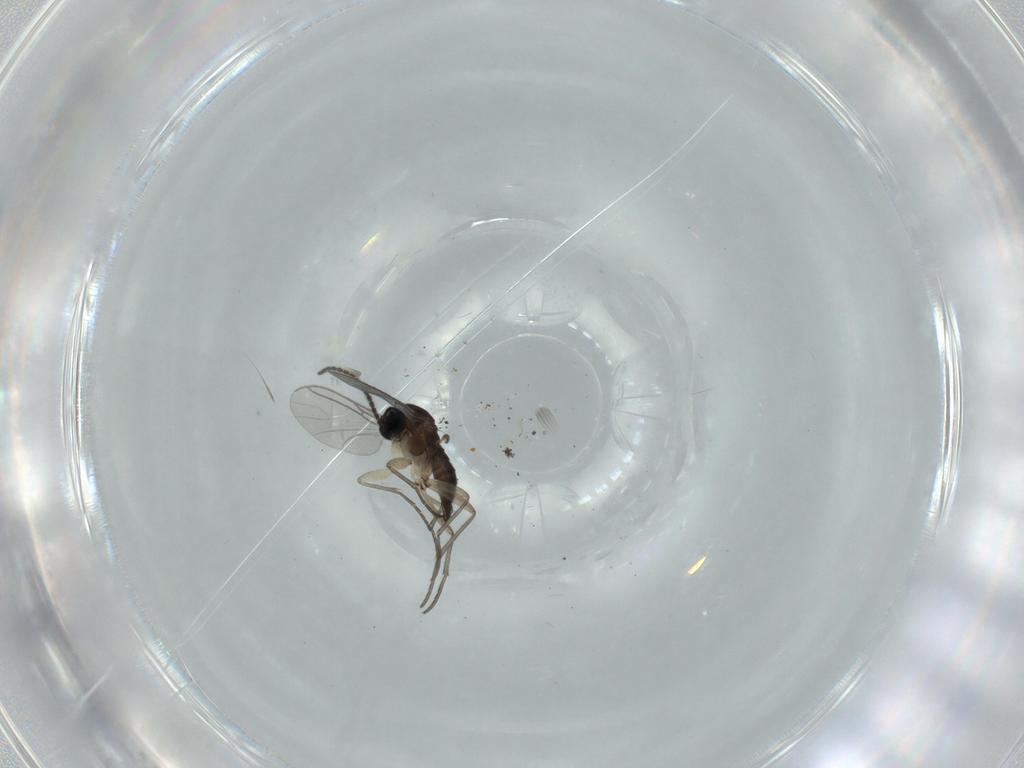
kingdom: Animalia
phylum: Arthropoda
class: Insecta
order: Diptera
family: Sciaridae
